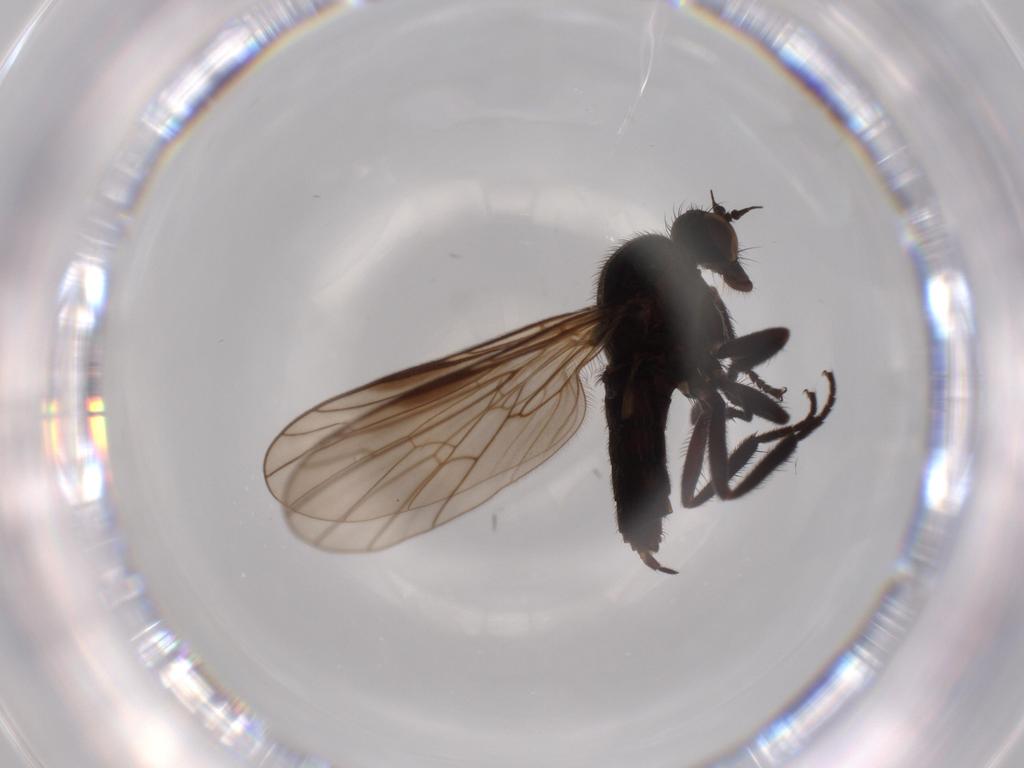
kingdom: Animalia
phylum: Arthropoda
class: Insecta
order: Diptera
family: Empididae
